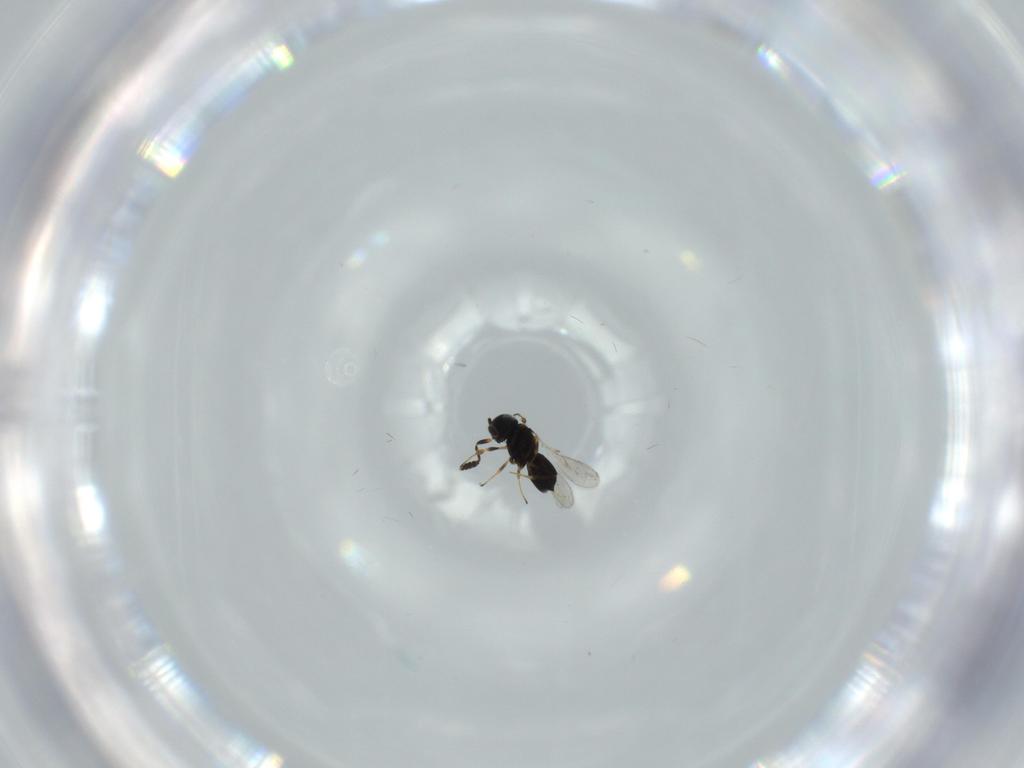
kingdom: Animalia
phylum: Arthropoda
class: Insecta
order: Hymenoptera
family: Scelionidae
